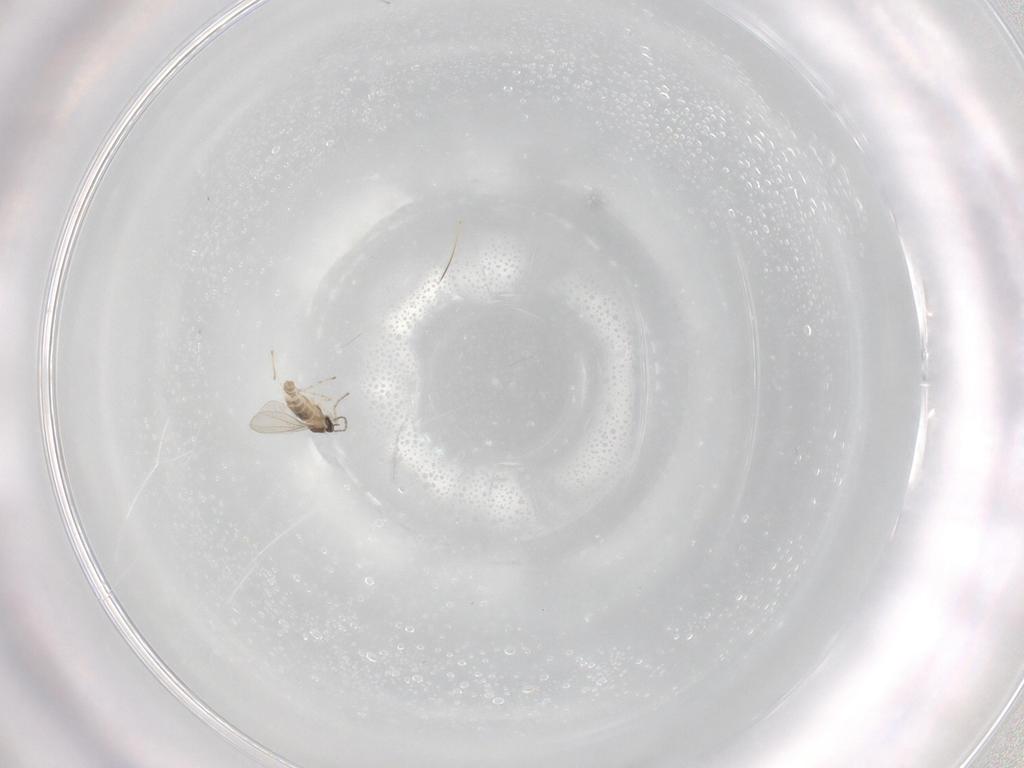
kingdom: Animalia
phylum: Arthropoda
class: Insecta
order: Diptera
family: Cecidomyiidae
